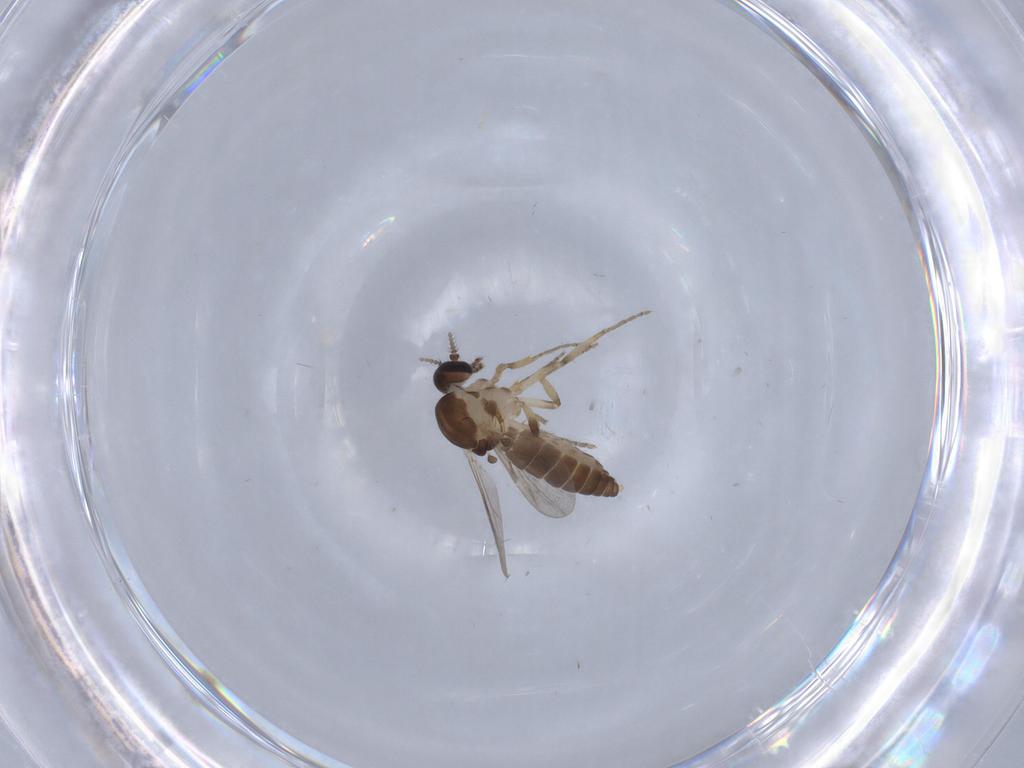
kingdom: Animalia
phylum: Arthropoda
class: Insecta
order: Diptera
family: Ceratopogonidae
